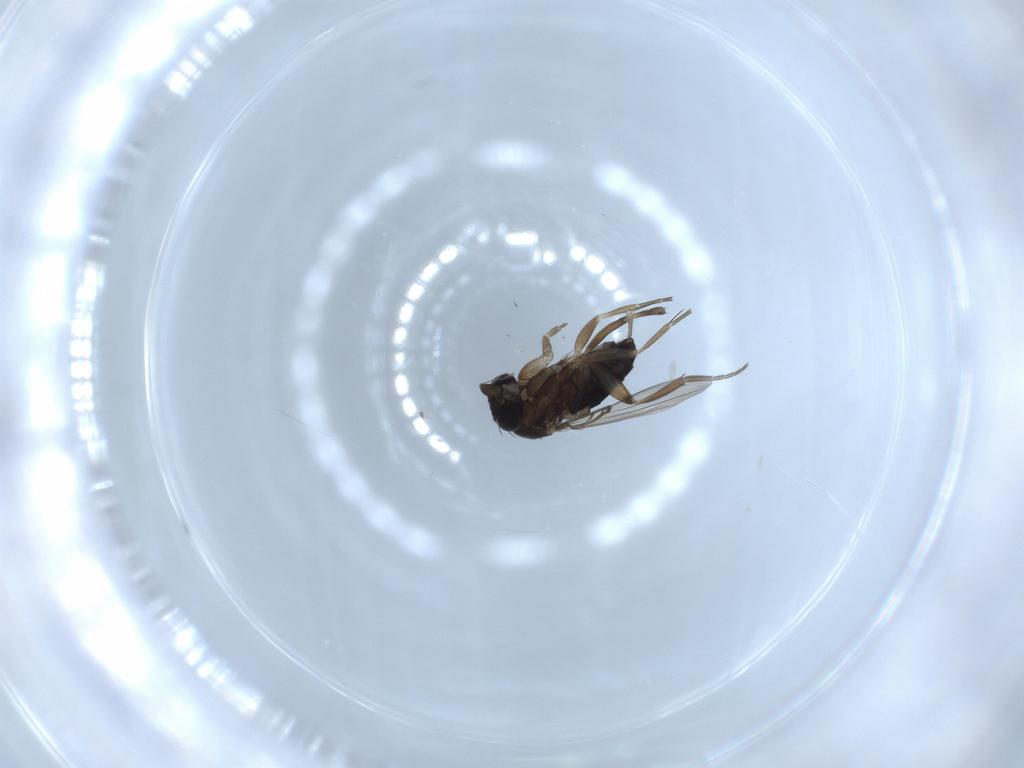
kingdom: Animalia
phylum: Arthropoda
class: Insecta
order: Diptera
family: Phoridae
